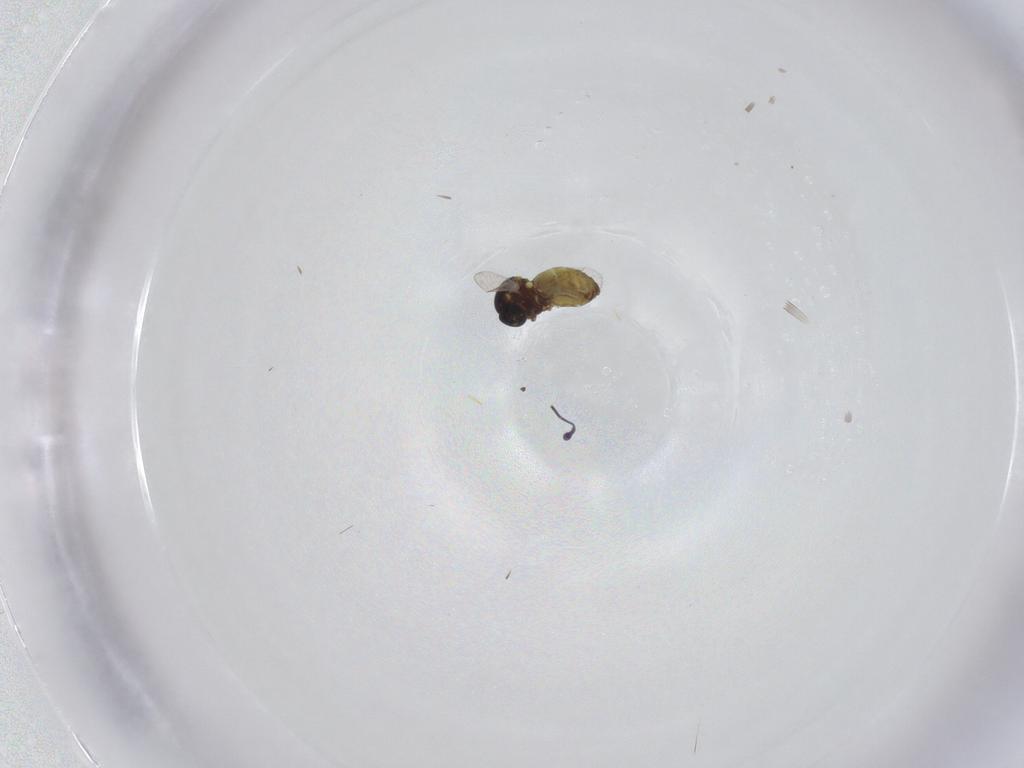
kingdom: Animalia
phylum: Arthropoda
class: Insecta
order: Diptera
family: Ceratopogonidae
